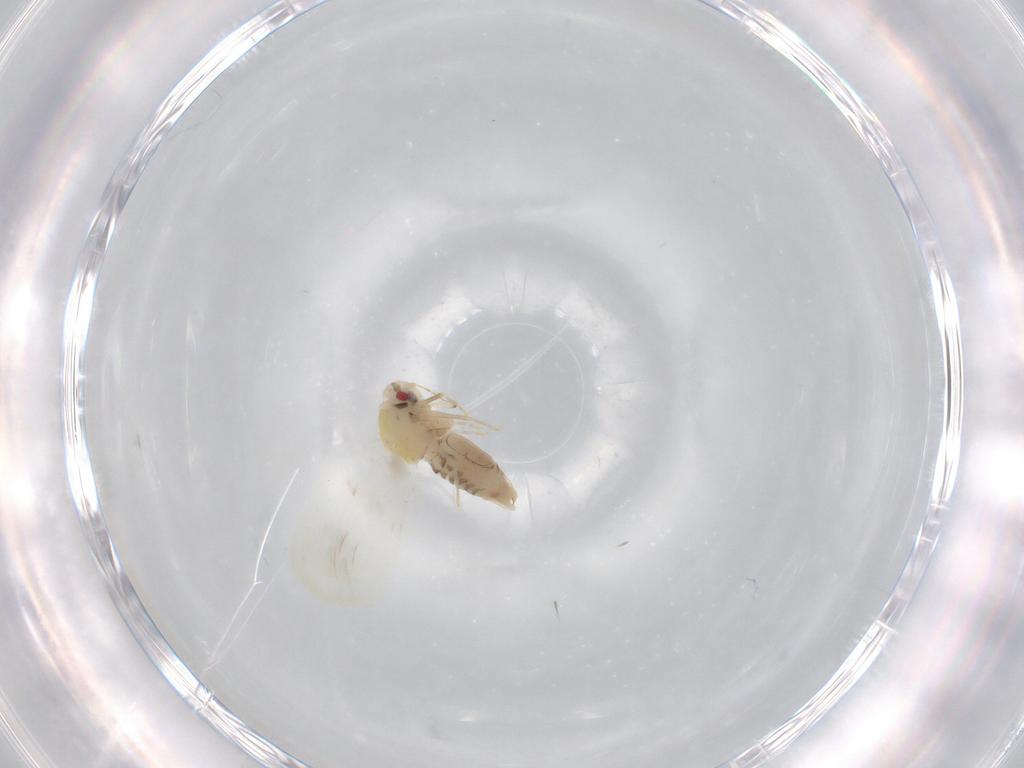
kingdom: Animalia
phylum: Arthropoda
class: Insecta
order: Hemiptera
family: Aleyrodidae
